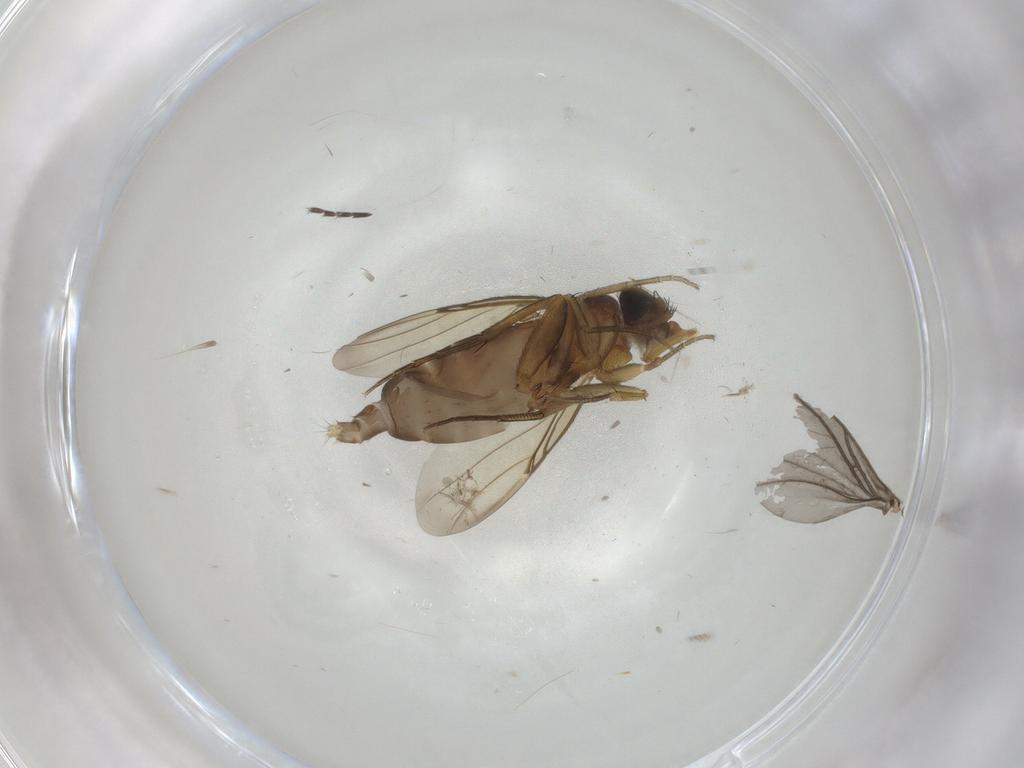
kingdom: Animalia
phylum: Arthropoda
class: Insecta
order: Diptera
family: Phoridae
